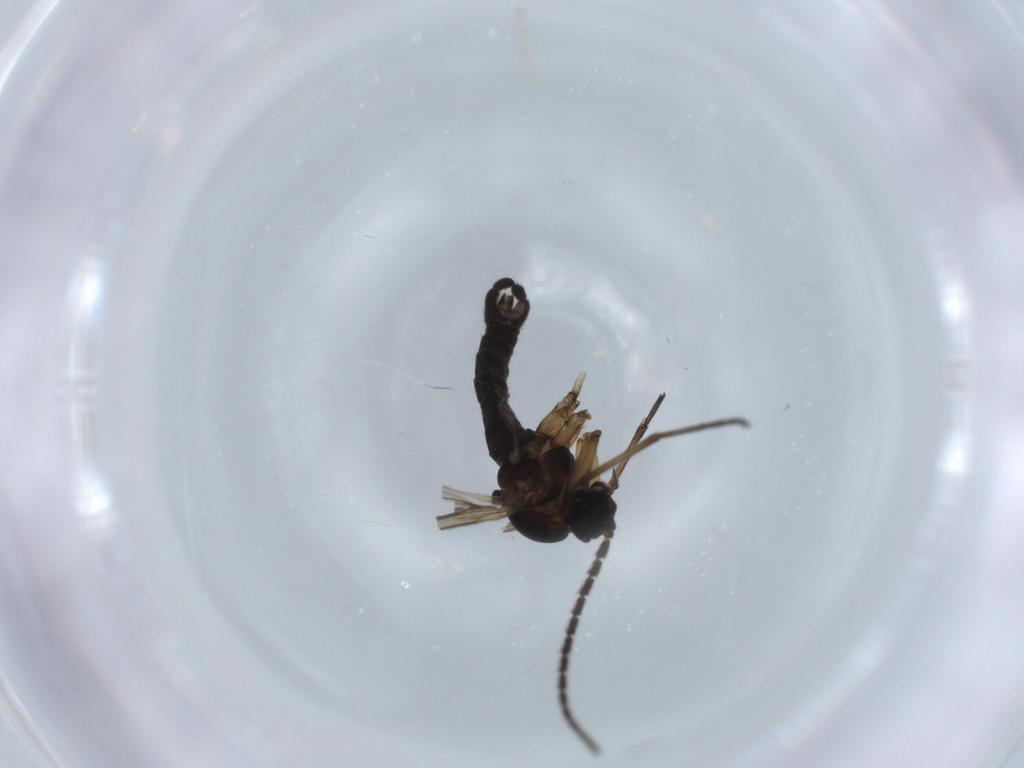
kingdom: Animalia
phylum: Arthropoda
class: Insecta
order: Diptera
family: Sciaridae
